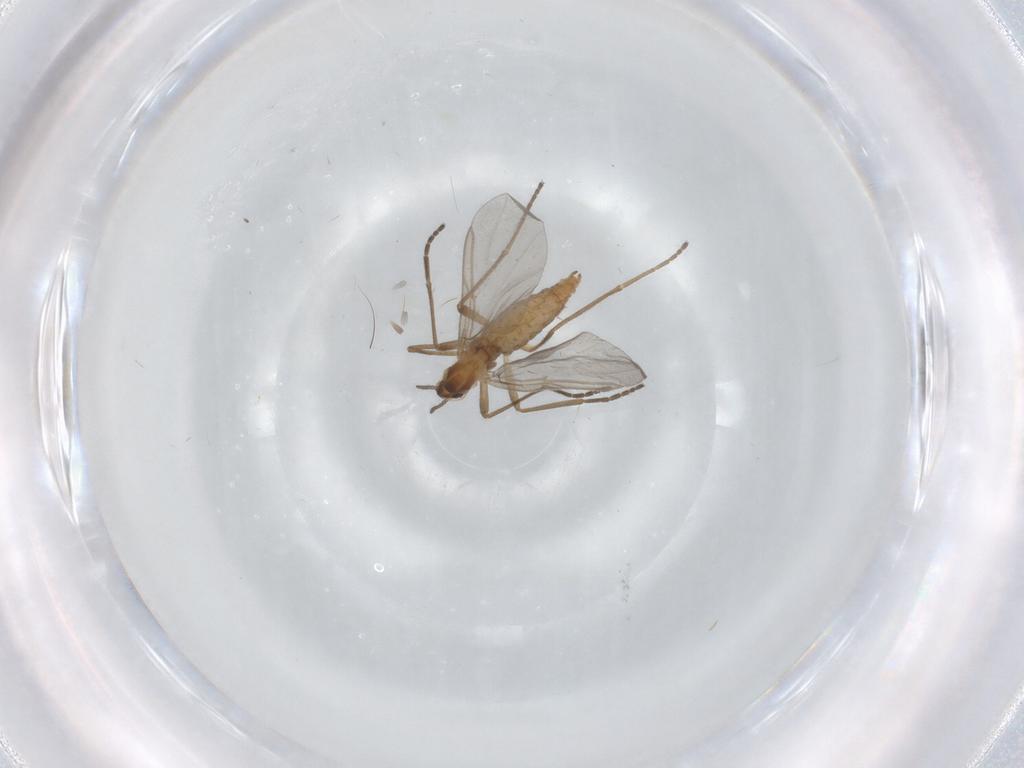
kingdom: Animalia
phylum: Arthropoda
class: Insecta
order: Diptera
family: Cecidomyiidae
